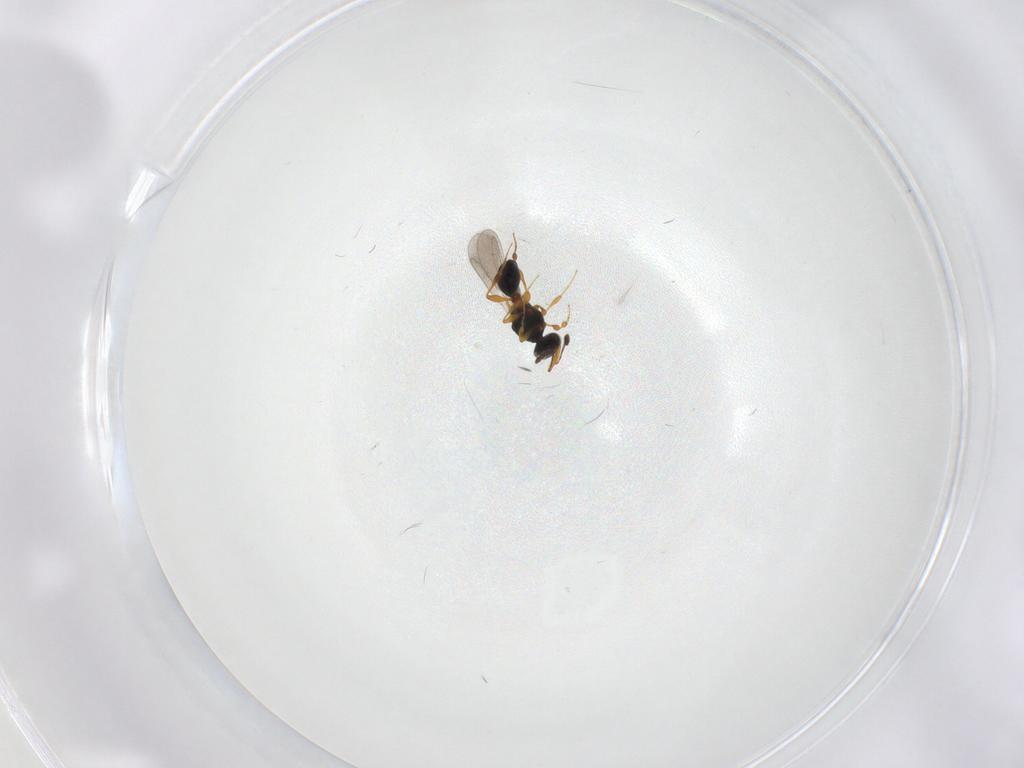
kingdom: Animalia
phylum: Arthropoda
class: Insecta
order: Hymenoptera
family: Platygastridae
